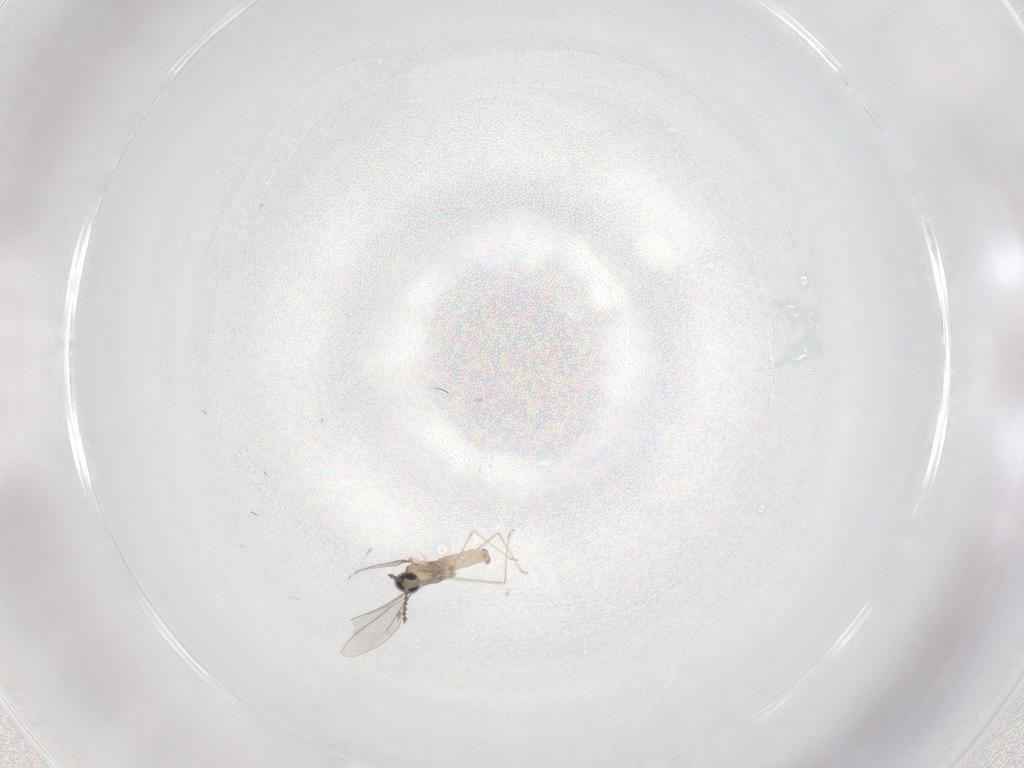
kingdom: Animalia
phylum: Arthropoda
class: Insecta
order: Diptera
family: Cecidomyiidae
